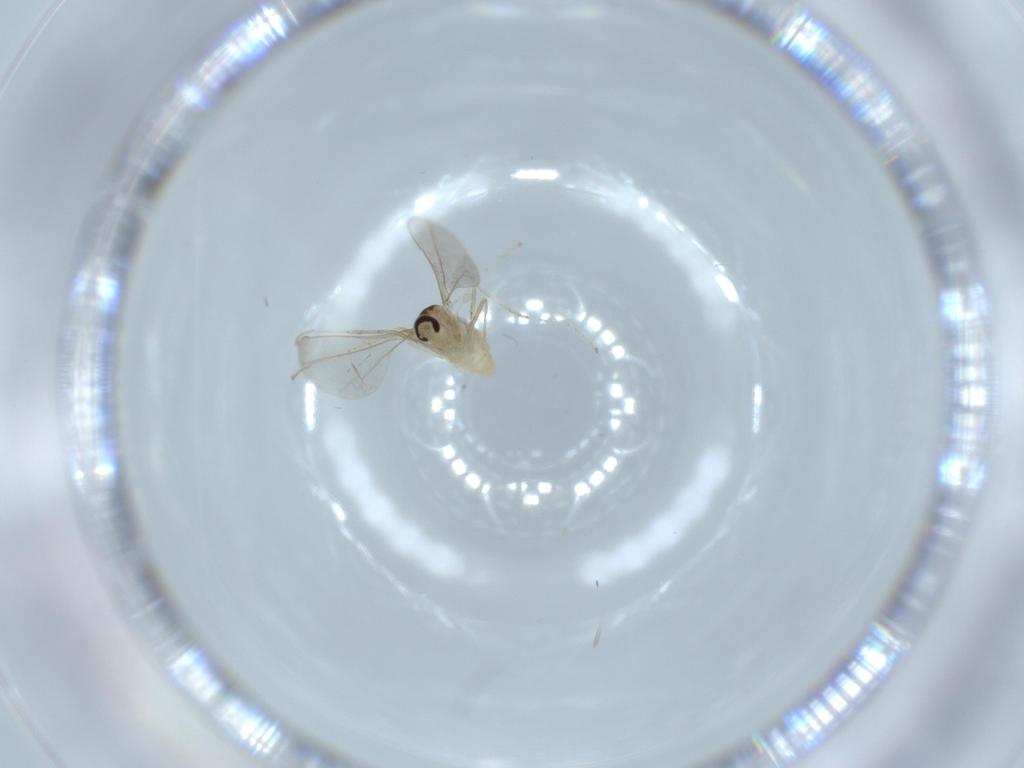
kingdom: Animalia
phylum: Arthropoda
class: Insecta
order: Diptera
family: Cecidomyiidae
